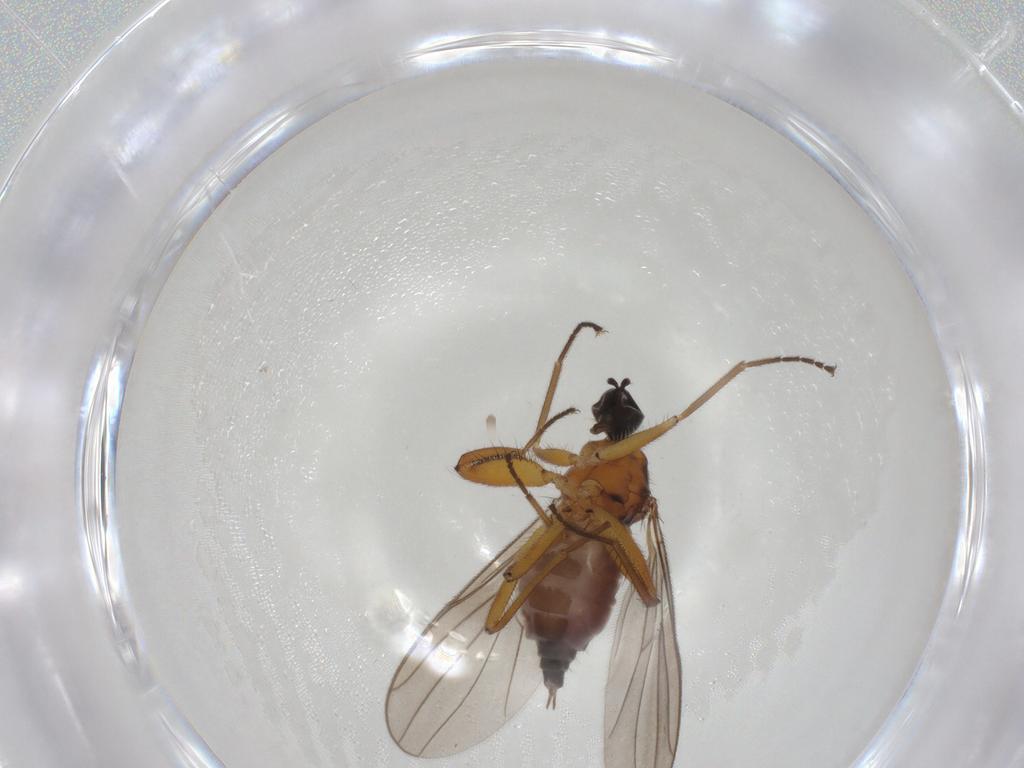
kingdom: Animalia
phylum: Arthropoda
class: Insecta
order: Diptera
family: Hybotidae
